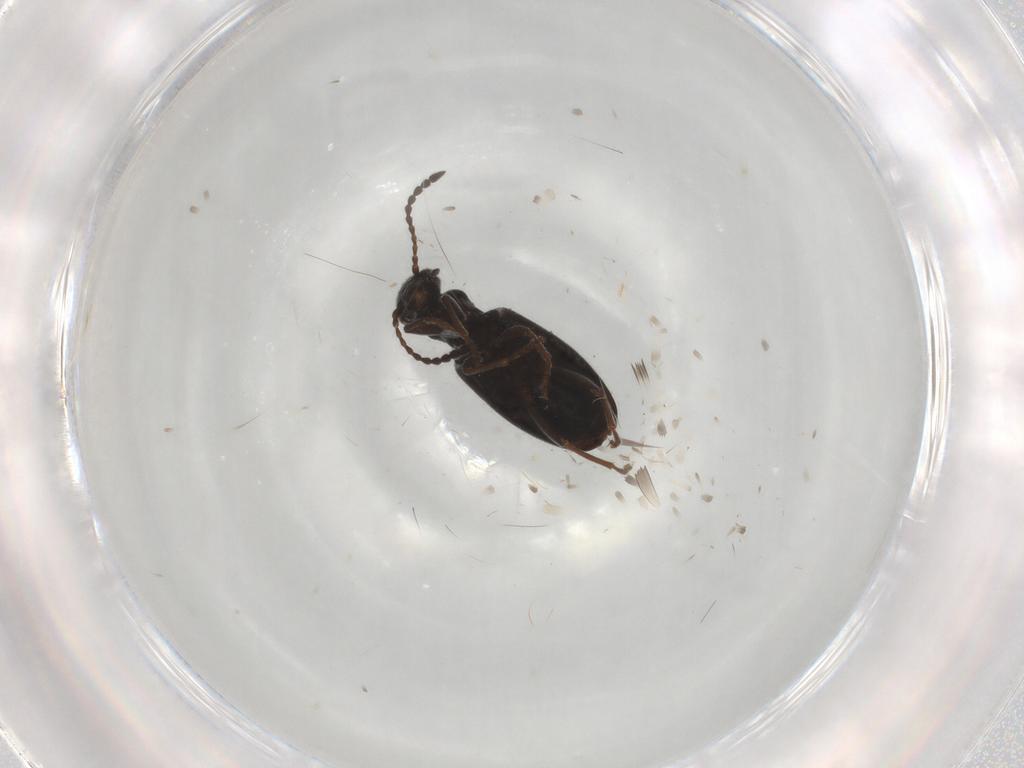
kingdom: Animalia
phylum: Arthropoda
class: Insecta
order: Coleoptera
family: Anthicidae
